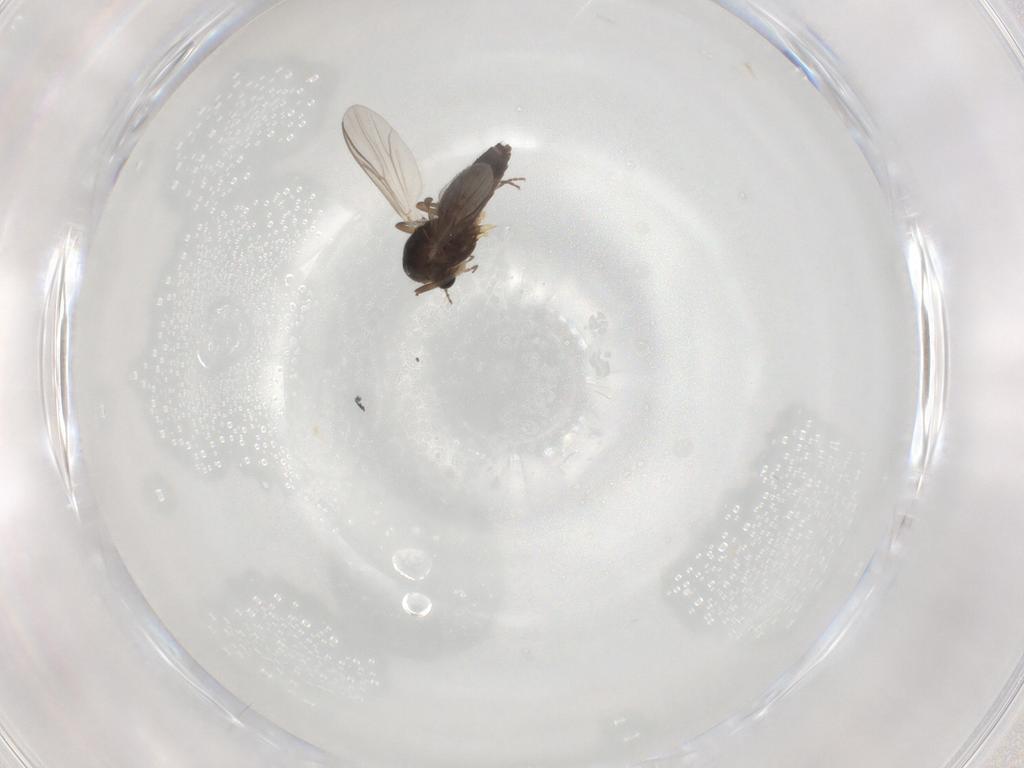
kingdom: Animalia
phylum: Arthropoda
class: Insecta
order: Diptera
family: Chironomidae
